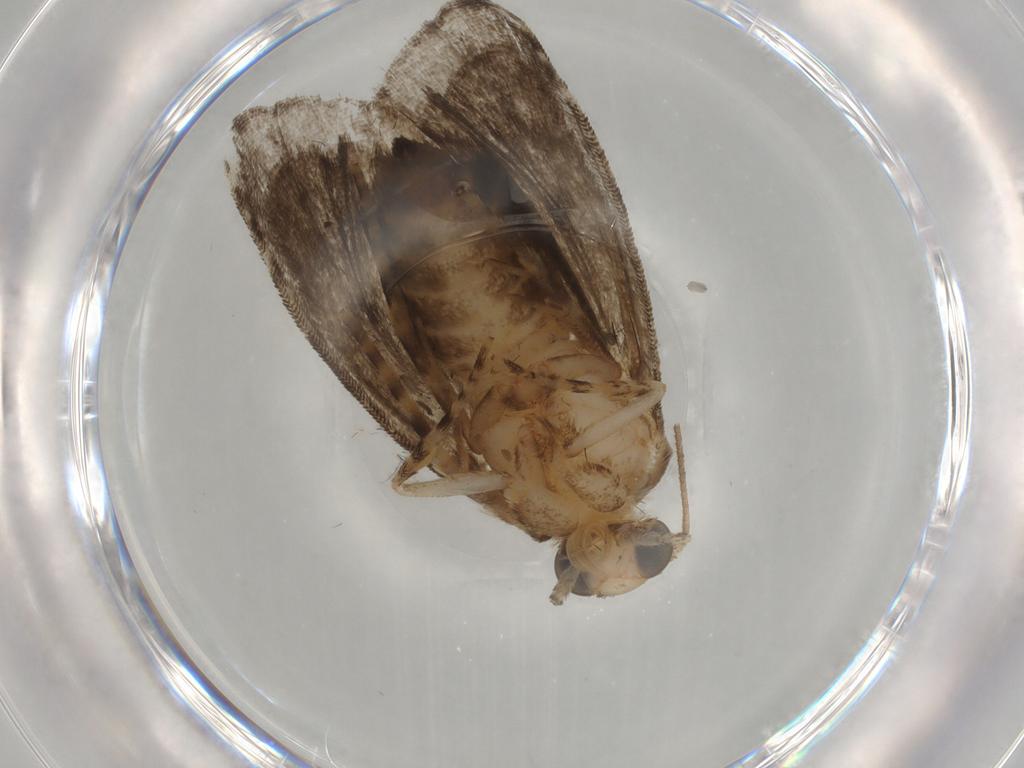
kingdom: Animalia
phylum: Arthropoda
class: Insecta
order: Lepidoptera
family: Immidae
